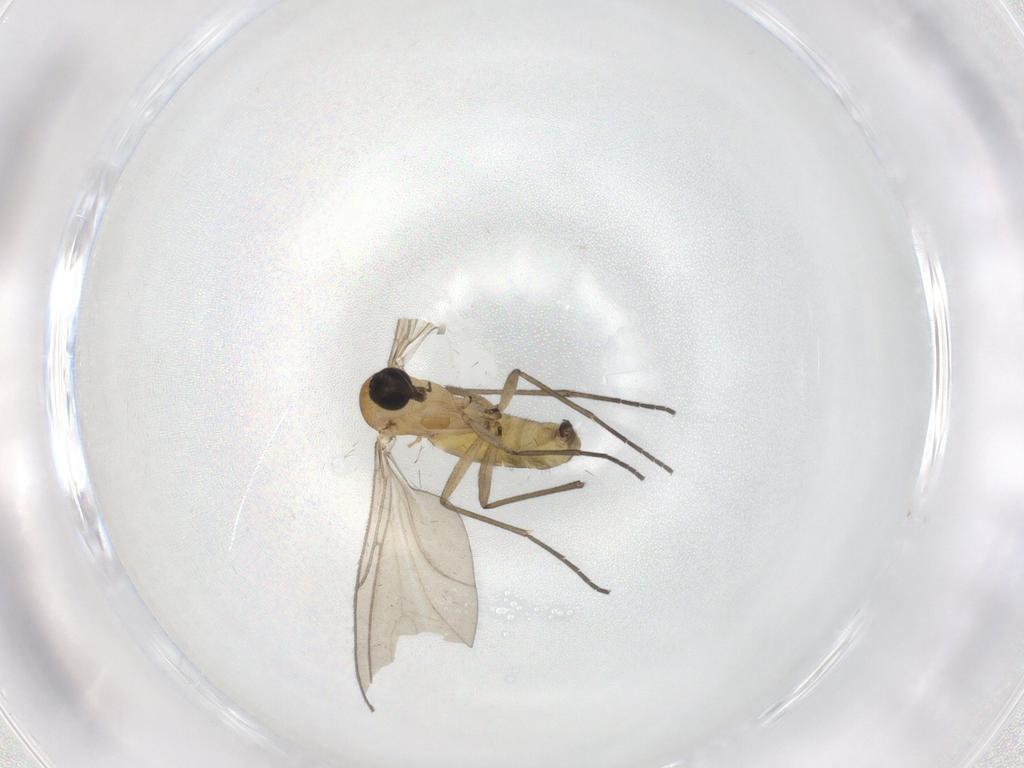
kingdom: Animalia
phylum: Arthropoda
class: Insecta
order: Diptera
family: Sciaridae
